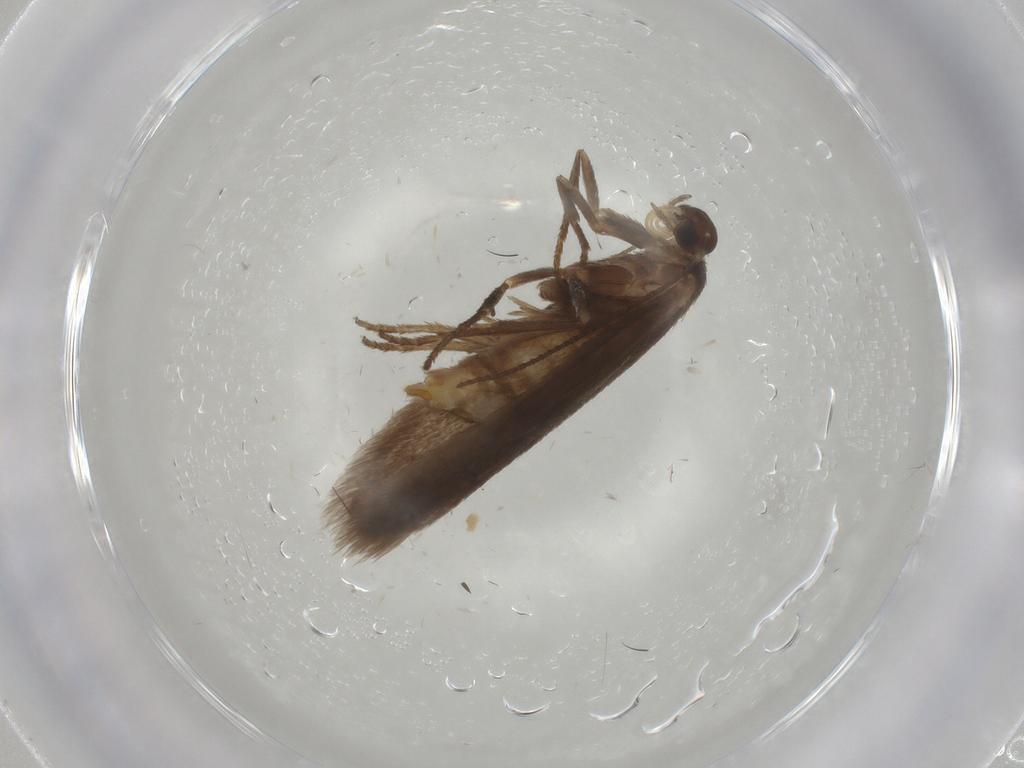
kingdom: Animalia
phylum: Arthropoda
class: Insecta
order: Lepidoptera
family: Limacodidae
